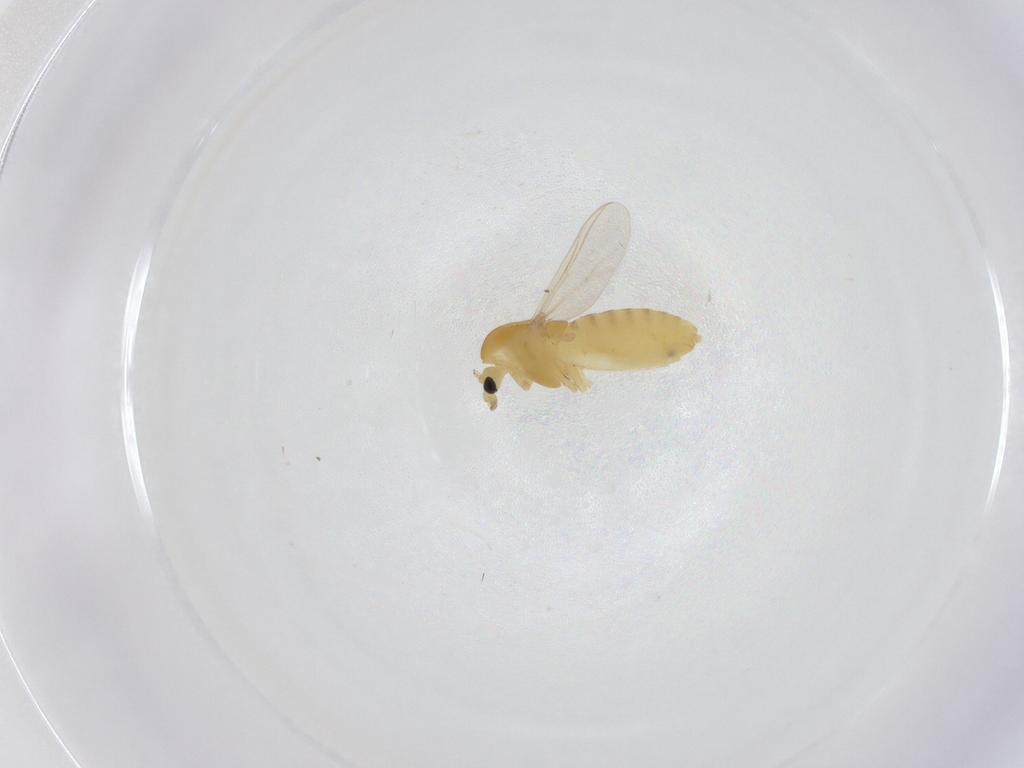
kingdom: Animalia
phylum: Arthropoda
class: Insecta
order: Diptera
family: Chironomidae
